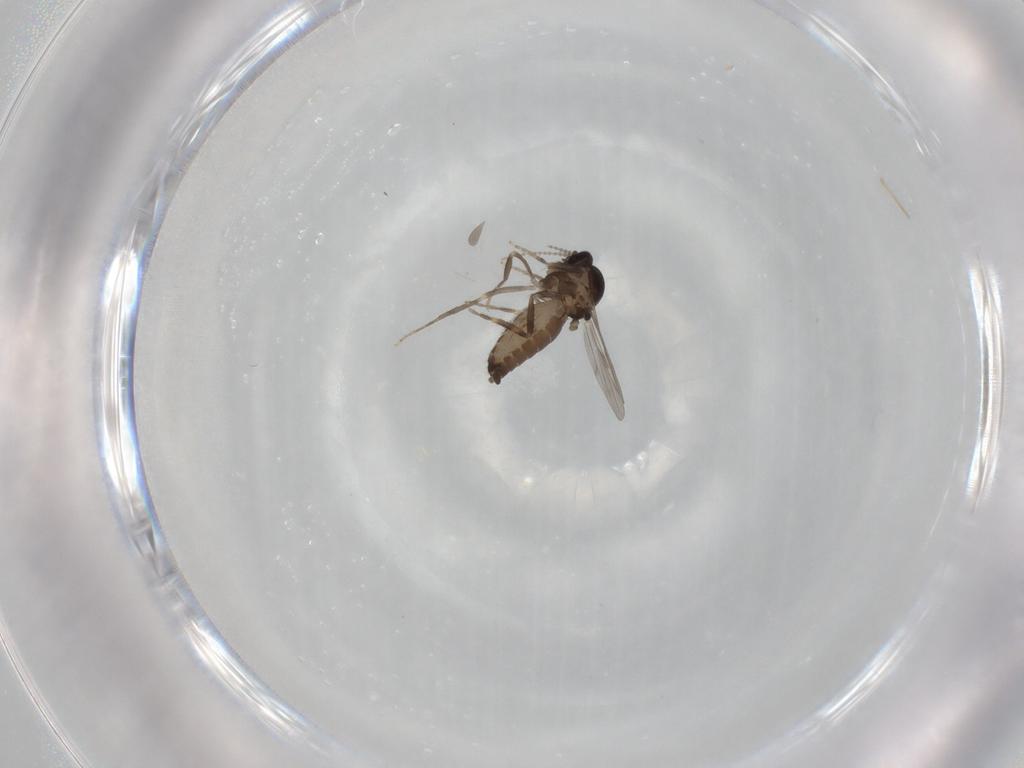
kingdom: Animalia
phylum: Arthropoda
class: Insecta
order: Diptera
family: Ceratopogonidae
